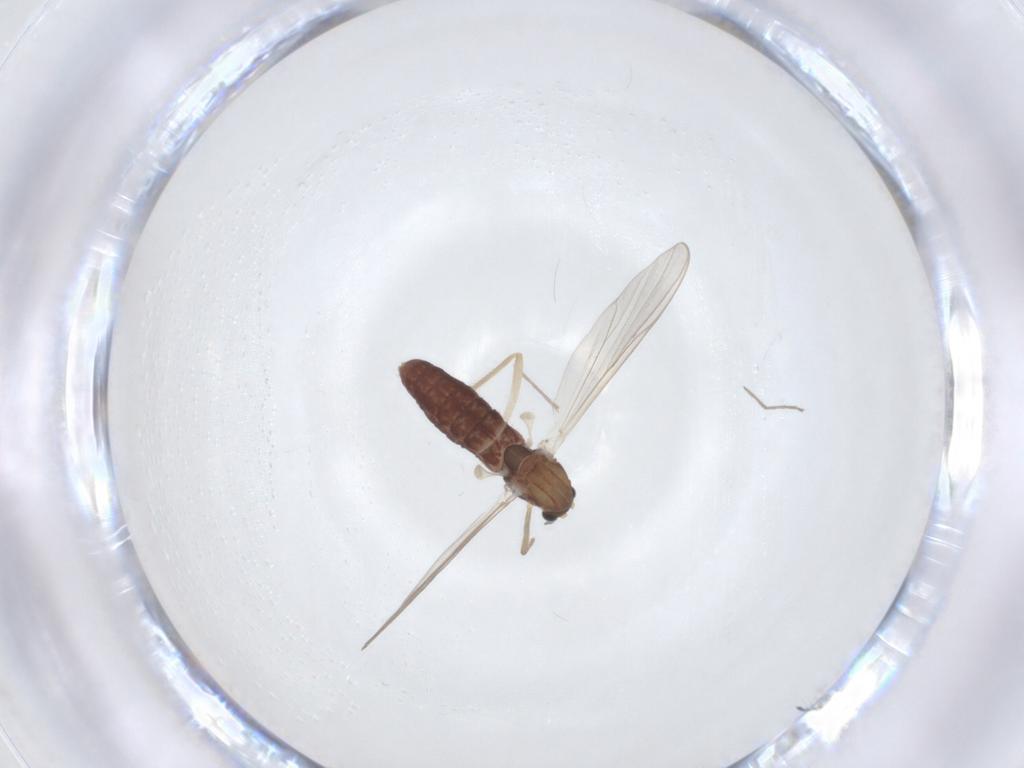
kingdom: Animalia
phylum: Arthropoda
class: Insecta
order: Diptera
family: Chironomidae
